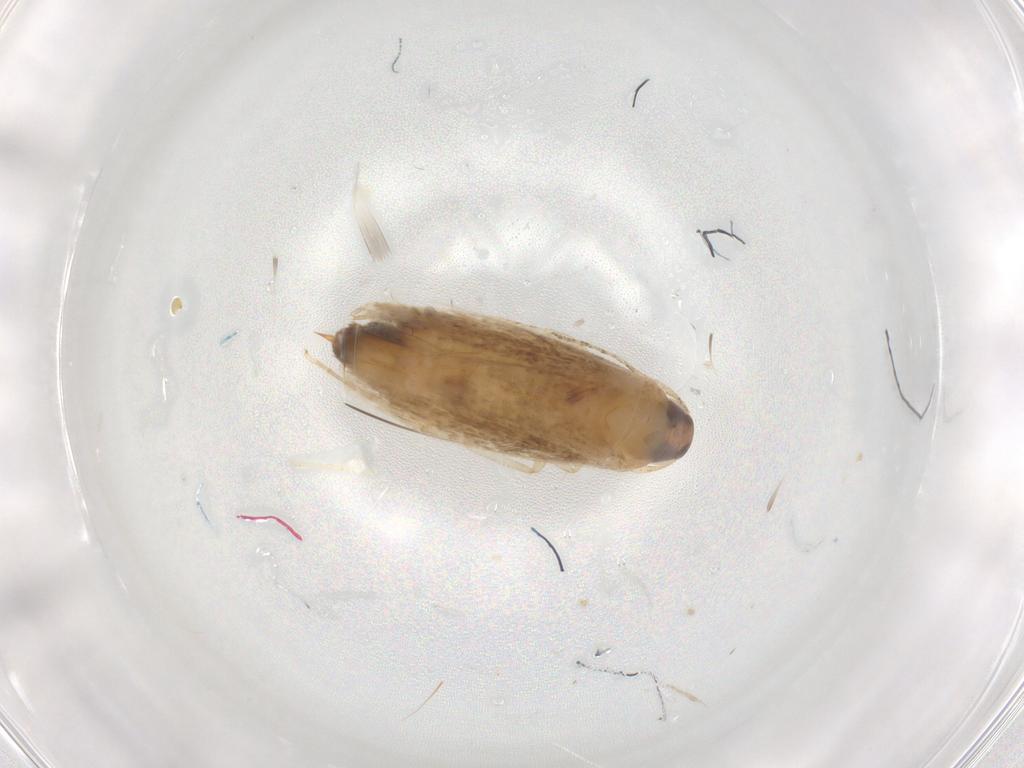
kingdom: Animalia
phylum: Arthropoda
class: Insecta
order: Lepidoptera
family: Cosmopterigidae
